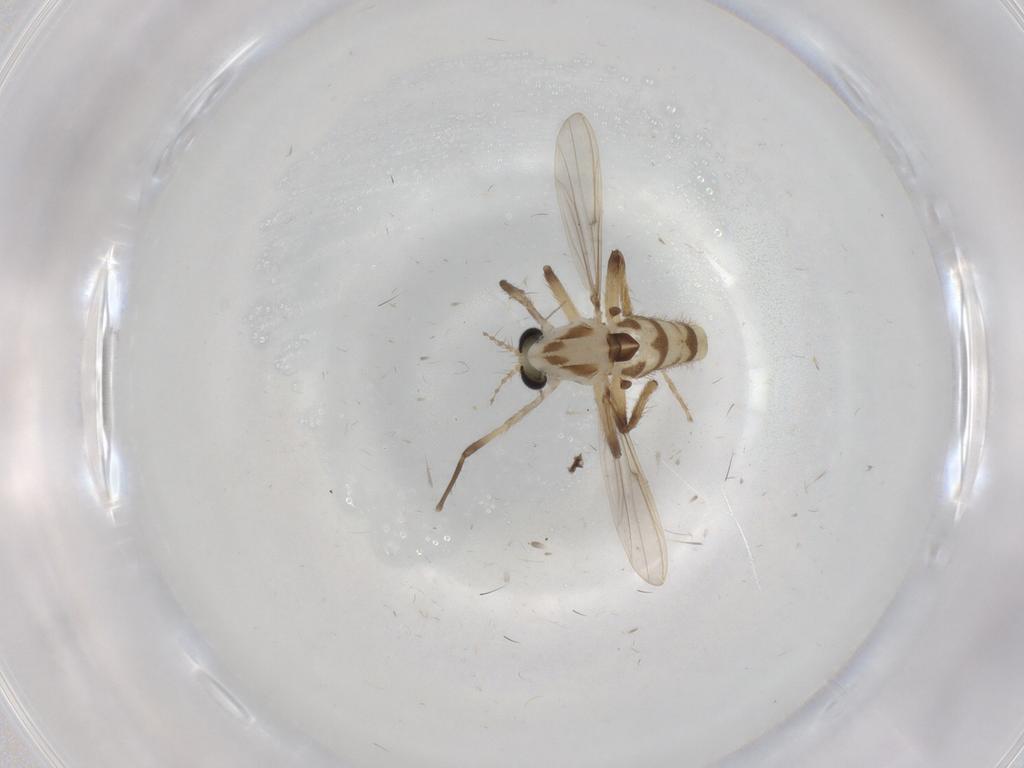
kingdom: Animalia
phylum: Arthropoda
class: Insecta
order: Diptera
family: Chironomidae
